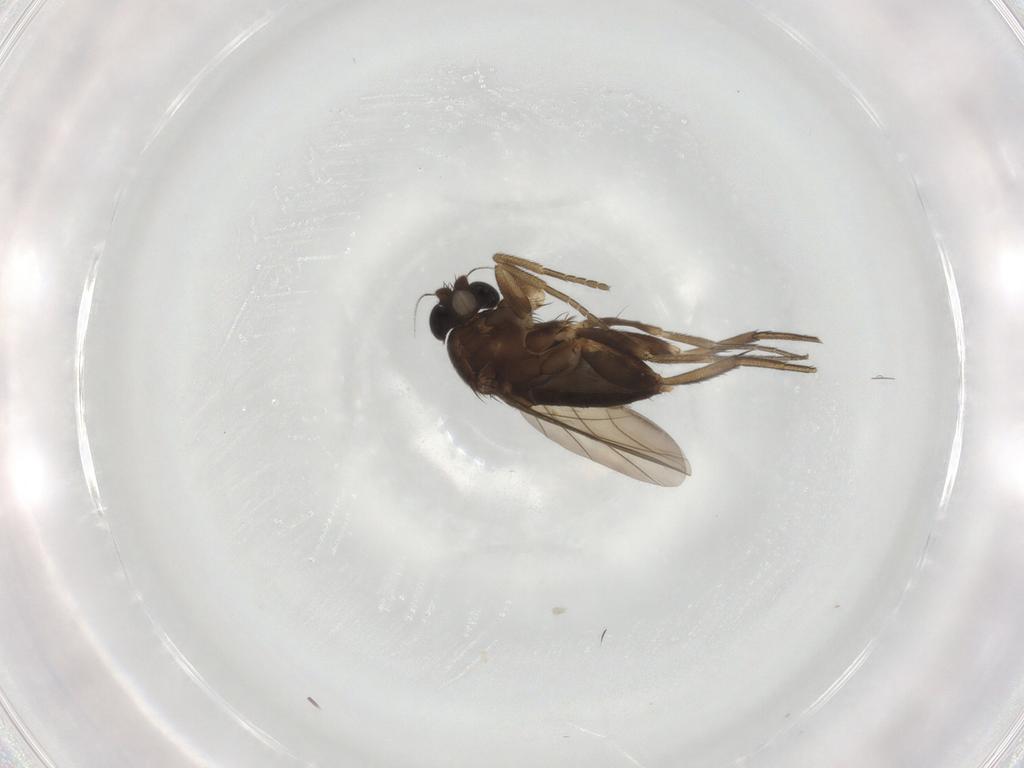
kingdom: Animalia
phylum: Arthropoda
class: Insecta
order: Diptera
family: Phoridae
